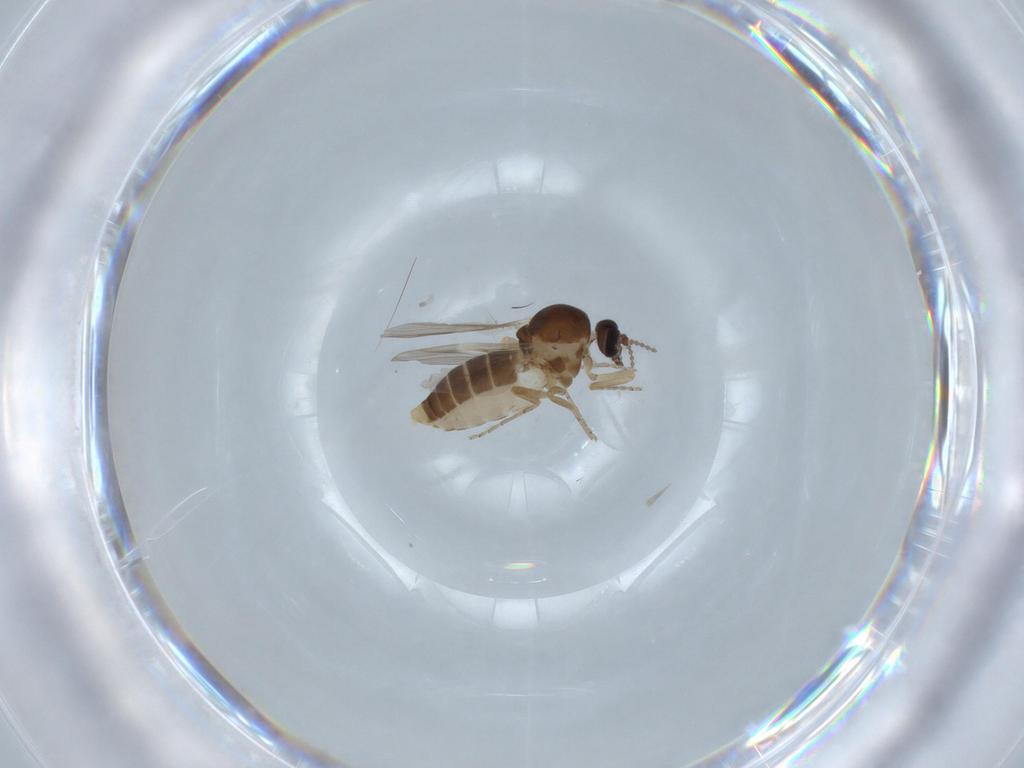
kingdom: Animalia
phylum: Arthropoda
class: Insecta
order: Diptera
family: Ceratopogonidae
